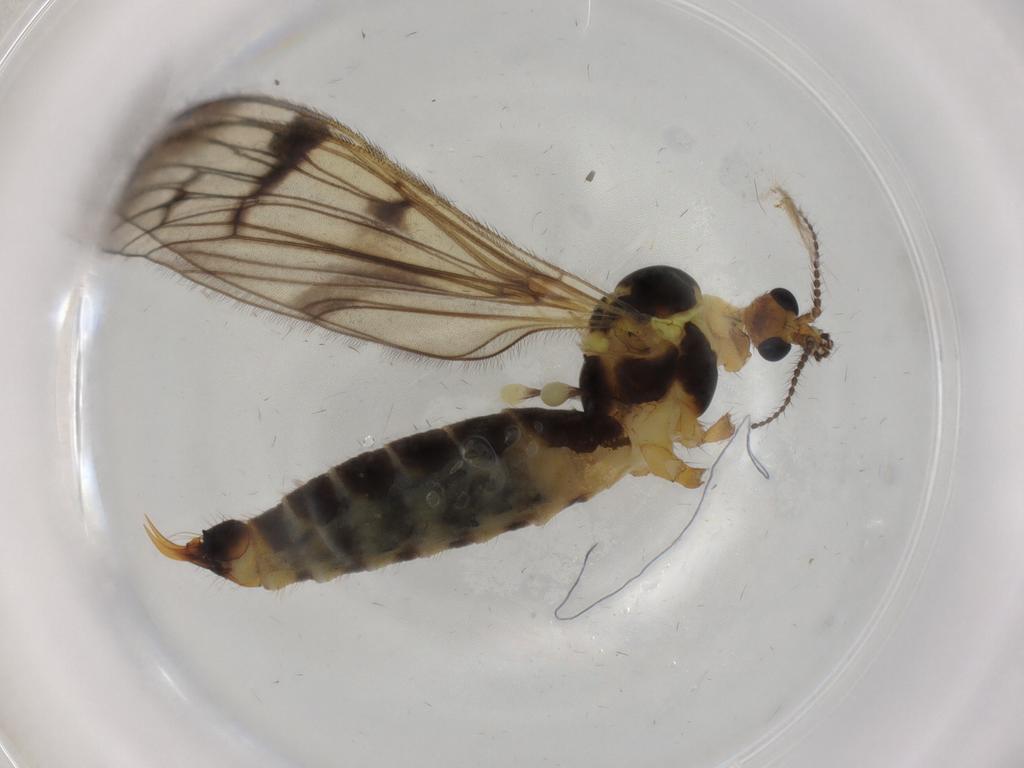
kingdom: Animalia
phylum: Arthropoda
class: Insecta
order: Diptera
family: Limoniidae
